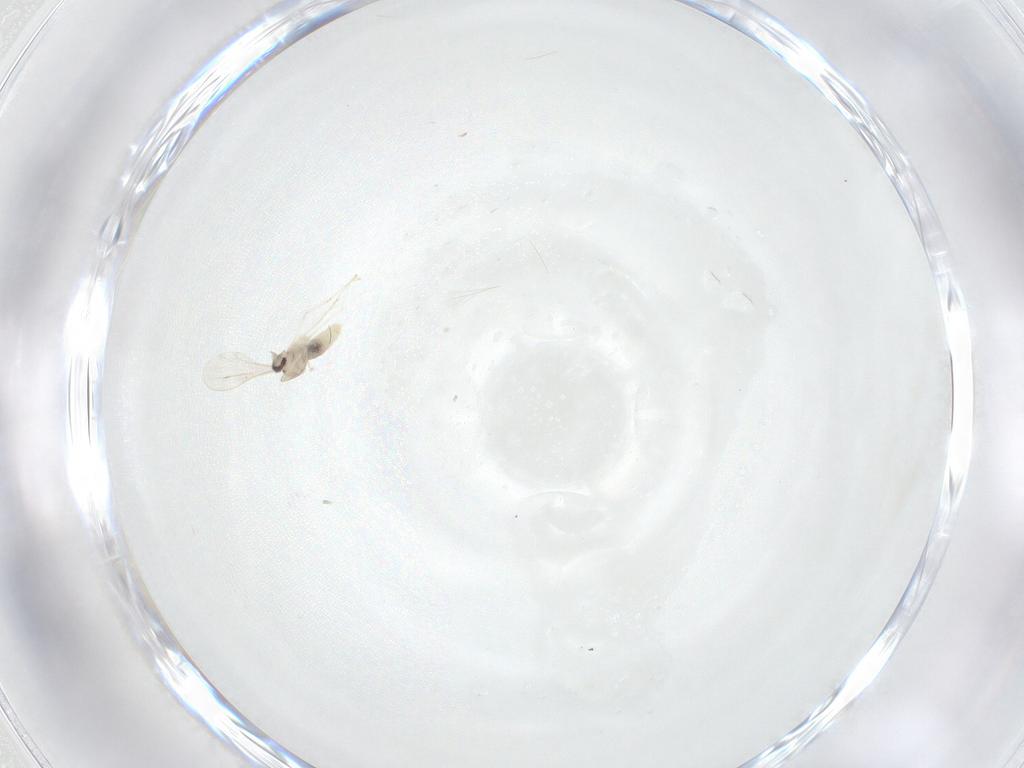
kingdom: Animalia
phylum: Arthropoda
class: Insecta
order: Diptera
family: Cecidomyiidae
